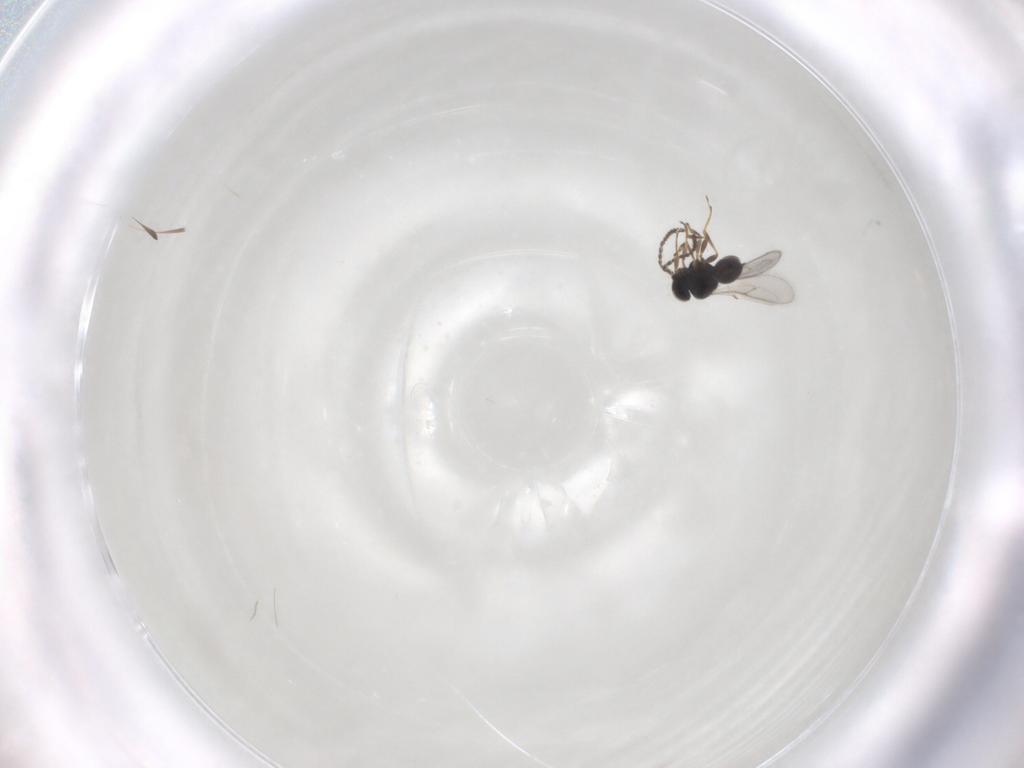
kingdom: Animalia
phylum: Arthropoda
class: Insecta
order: Hymenoptera
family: Scelionidae
